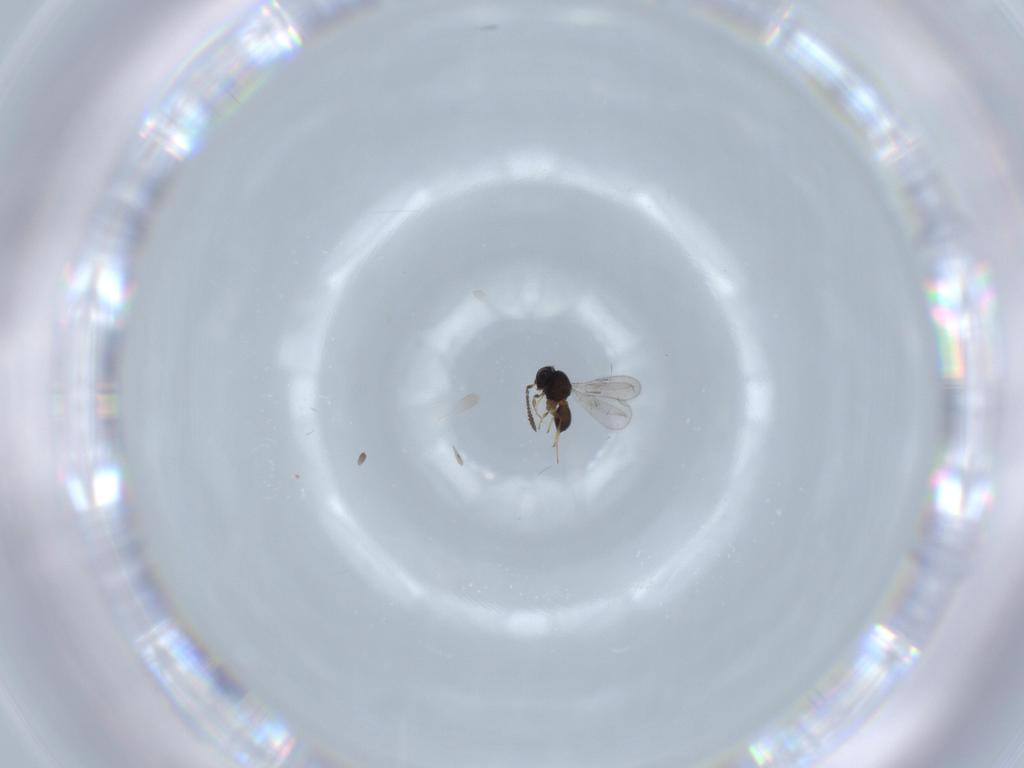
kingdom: Animalia
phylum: Arthropoda
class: Insecta
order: Hymenoptera
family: Scelionidae
